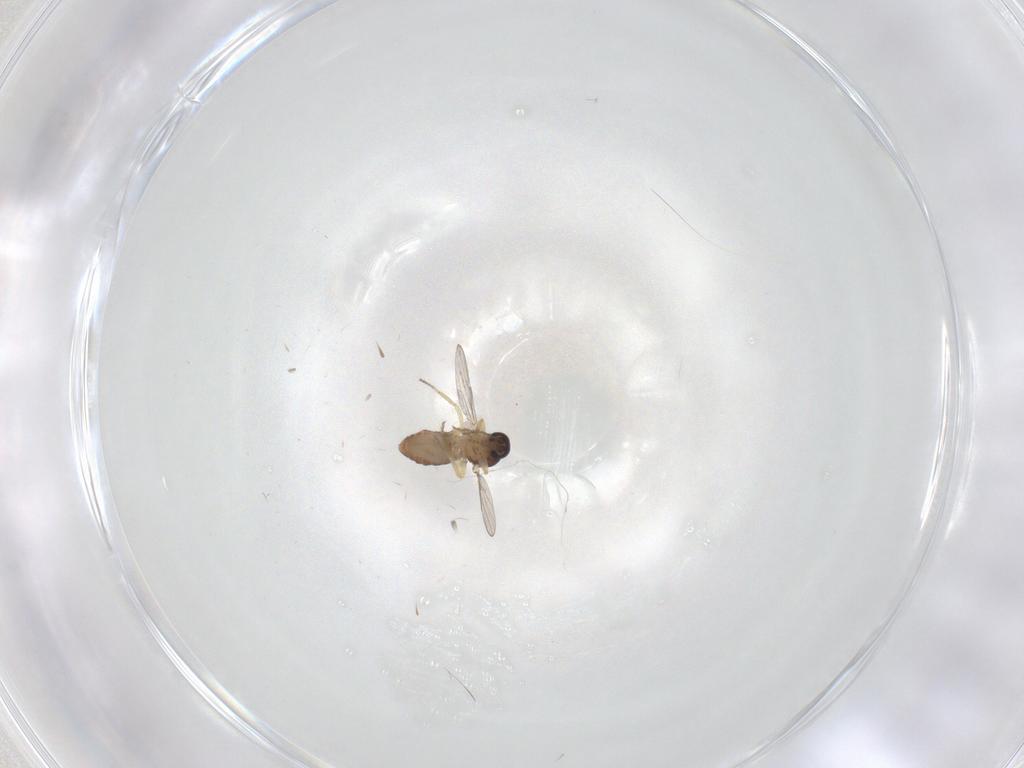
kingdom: Animalia
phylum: Arthropoda
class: Insecta
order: Diptera
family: Ceratopogonidae
